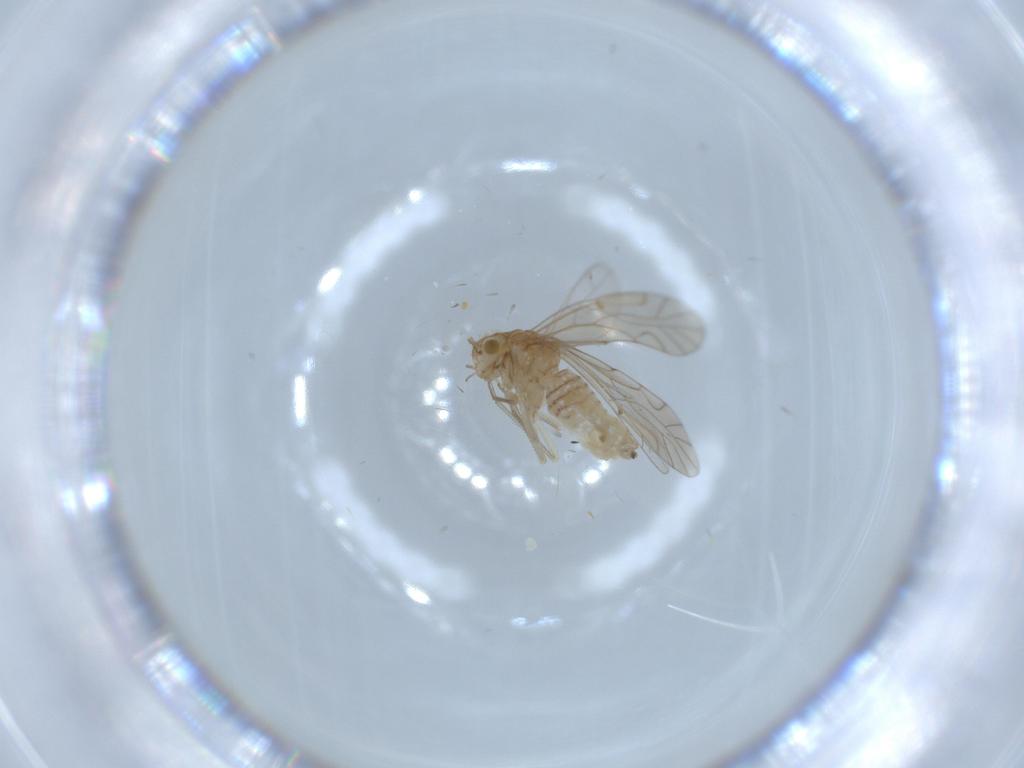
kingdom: Animalia
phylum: Arthropoda
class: Insecta
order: Psocodea
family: Lachesillidae
